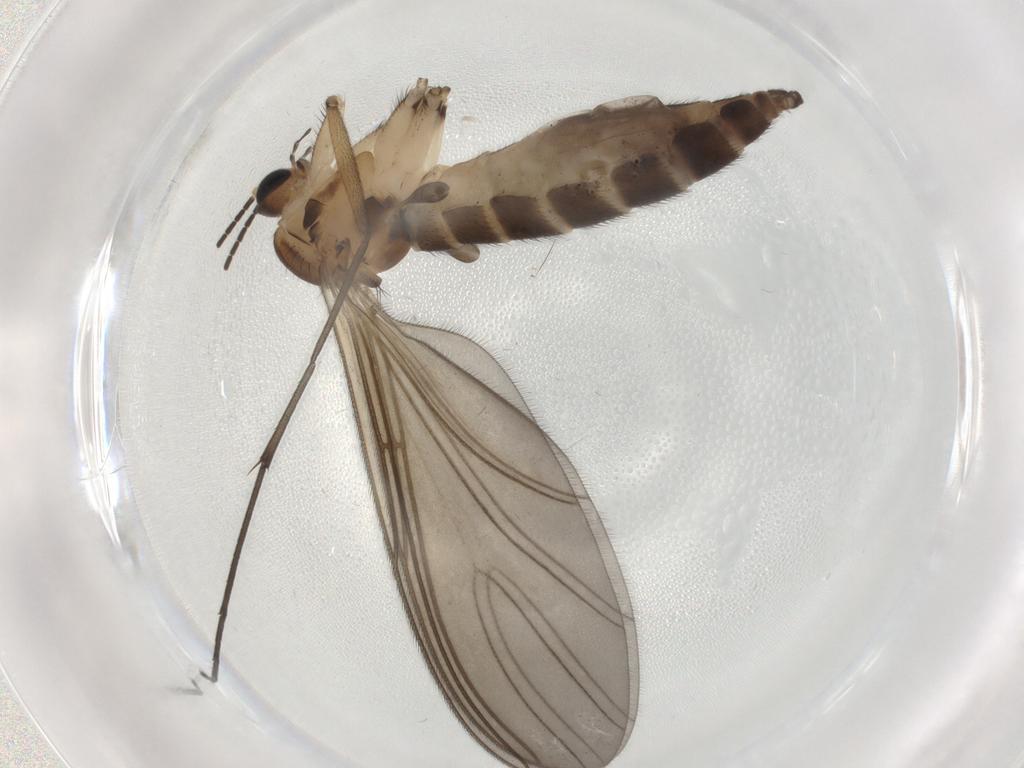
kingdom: Animalia
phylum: Arthropoda
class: Insecta
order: Diptera
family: Sciaridae
